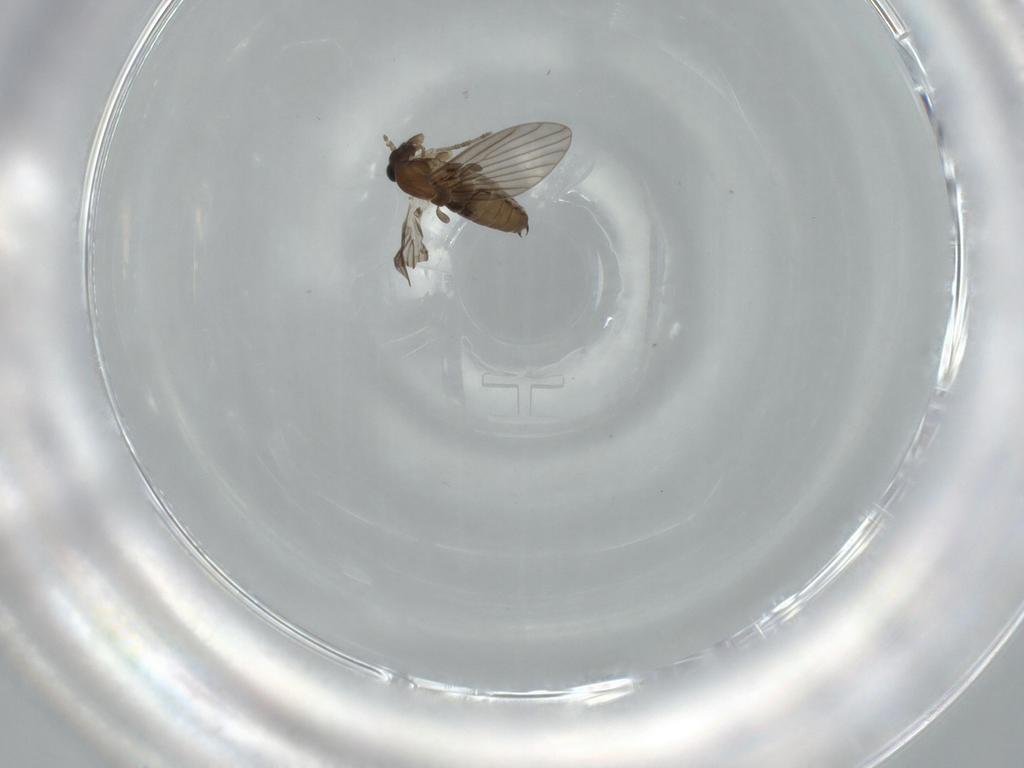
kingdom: Animalia
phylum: Arthropoda
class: Insecta
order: Diptera
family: Psychodidae
